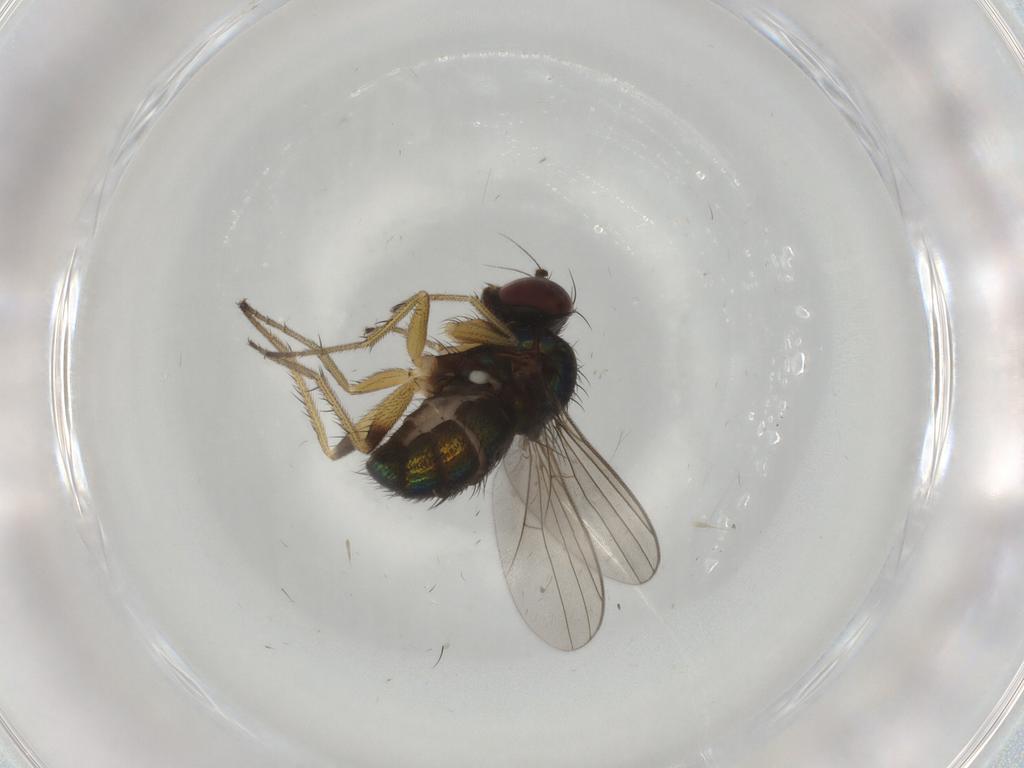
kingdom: Animalia
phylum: Arthropoda
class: Insecta
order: Diptera
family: Dolichopodidae
